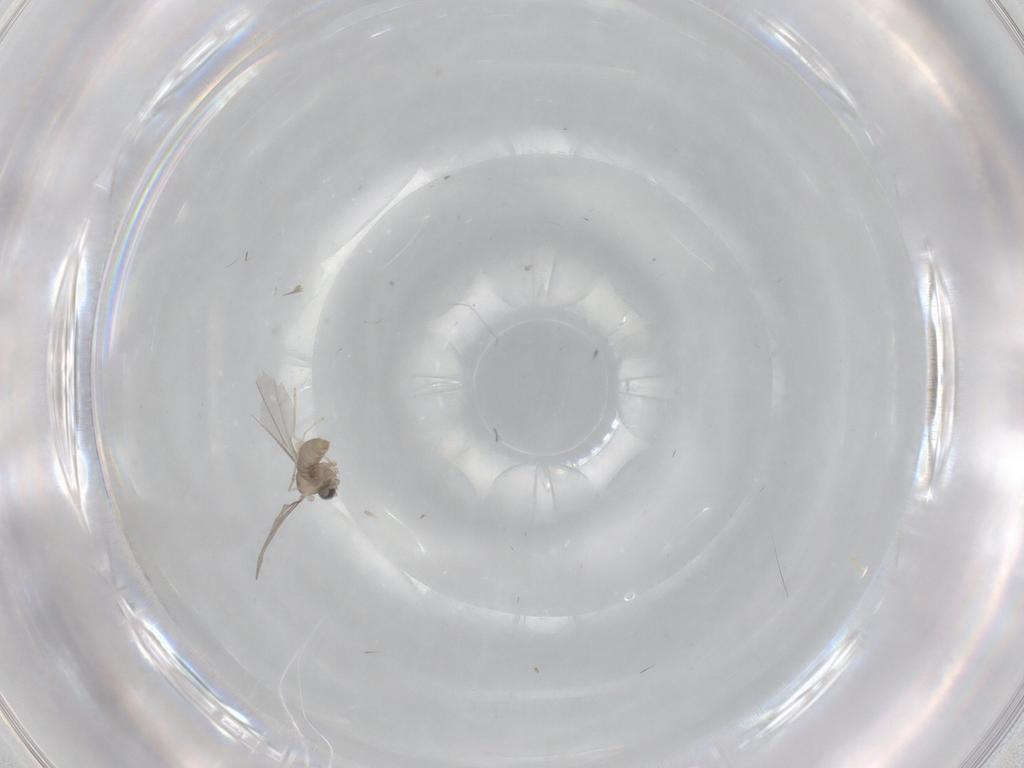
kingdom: Animalia
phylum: Arthropoda
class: Insecta
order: Diptera
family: Cecidomyiidae
